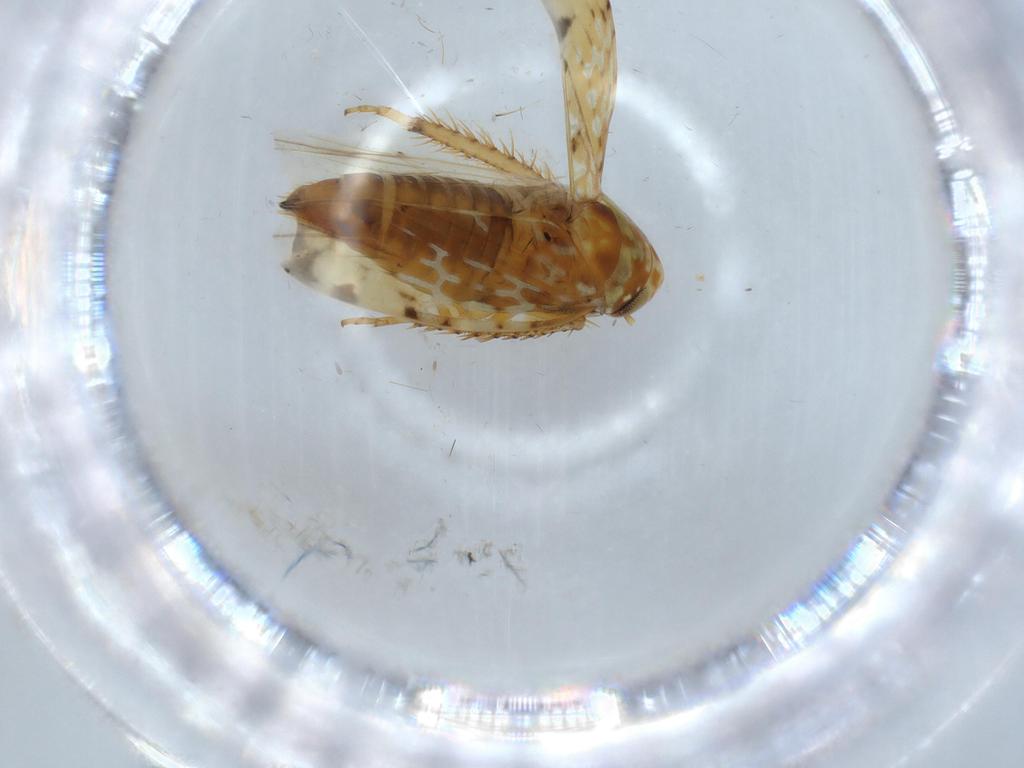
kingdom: Animalia
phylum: Arthropoda
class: Insecta
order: Hemiptera
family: Cicadellidae
